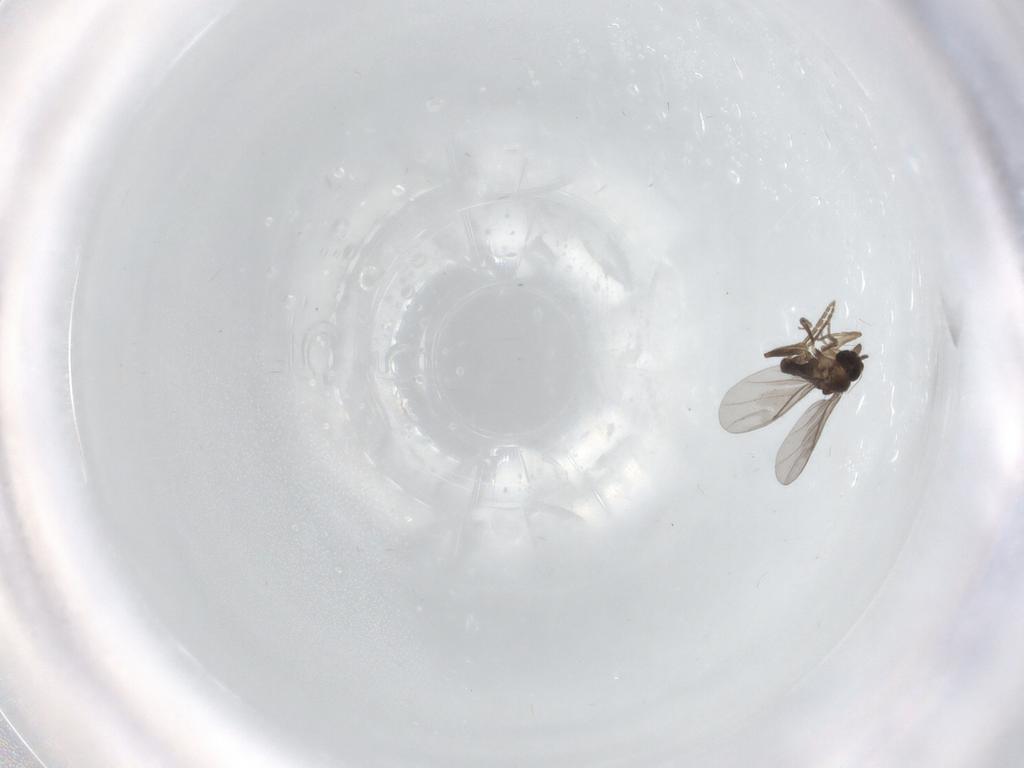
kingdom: Animalia
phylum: Arthropoda
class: Insecta
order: Diptera
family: Cecidomyiidae
